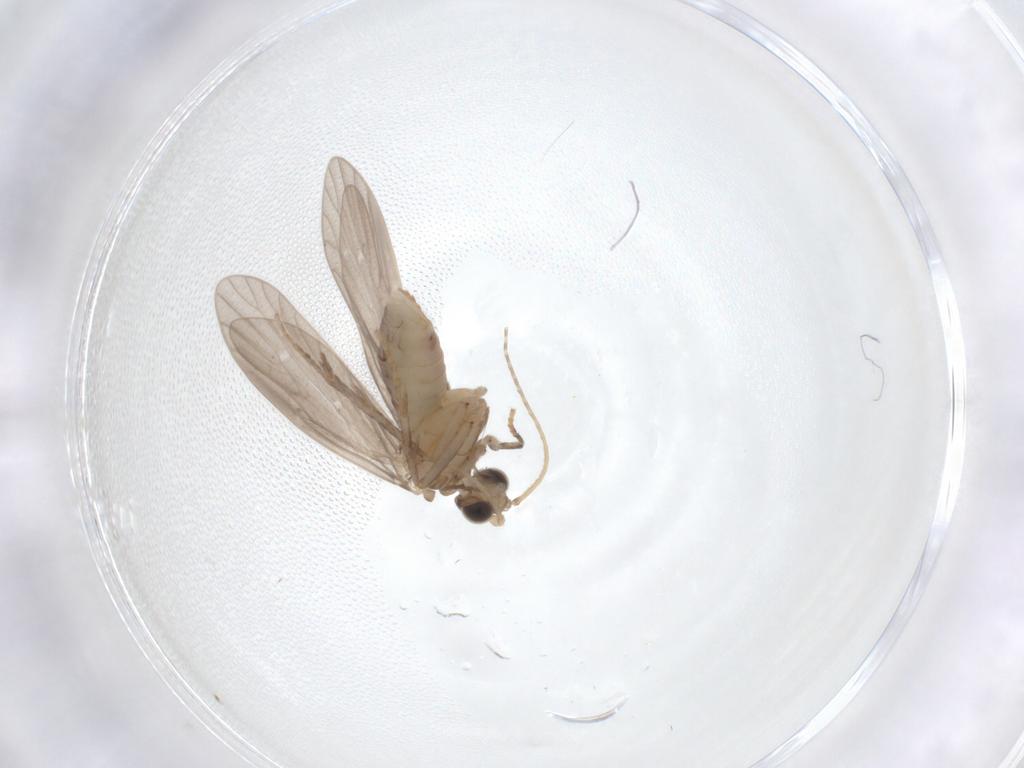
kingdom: Animalia
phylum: Arthropoda
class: Insecta
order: Trichoptera
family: Psychomyiidae
